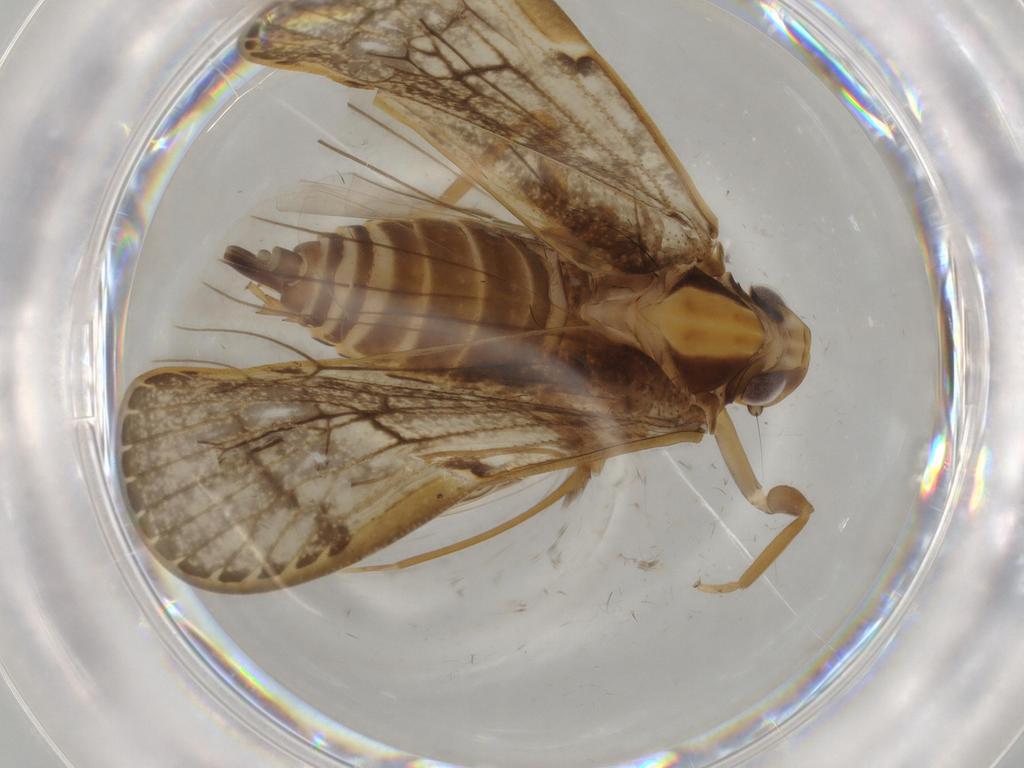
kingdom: Animalia
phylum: Arthropoda
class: Insecta
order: Hemiptera
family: Cixiidae
